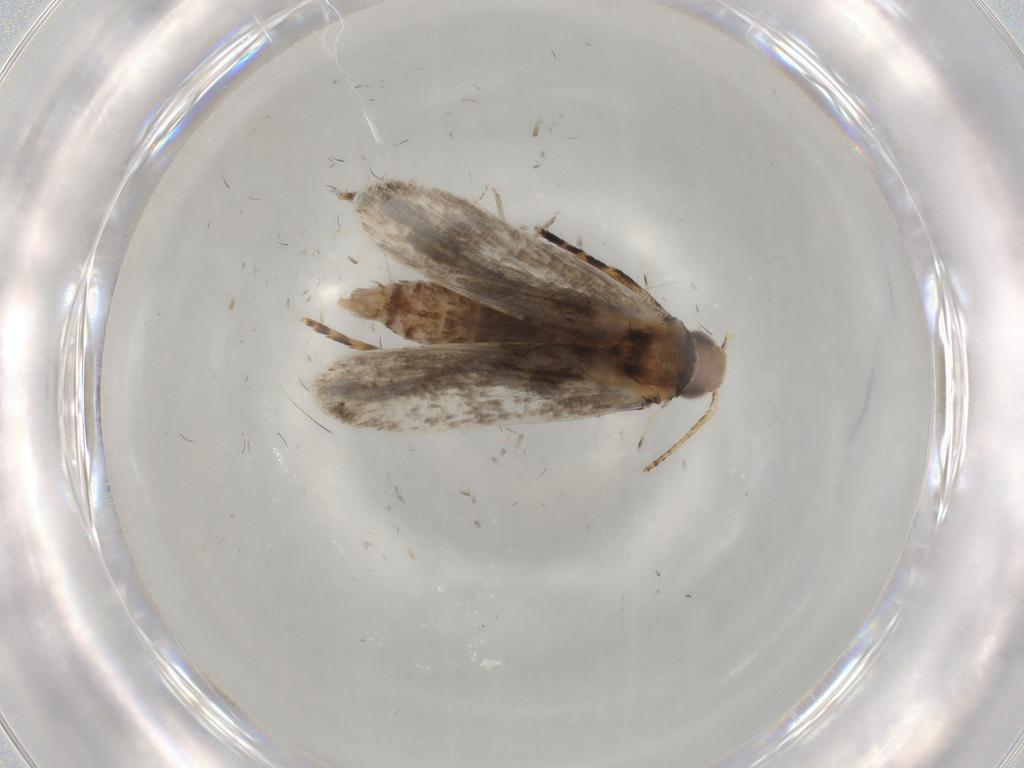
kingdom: Animalia
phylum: Arthropoda
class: Insecta
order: Lepidoptera
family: Gelechiidae
